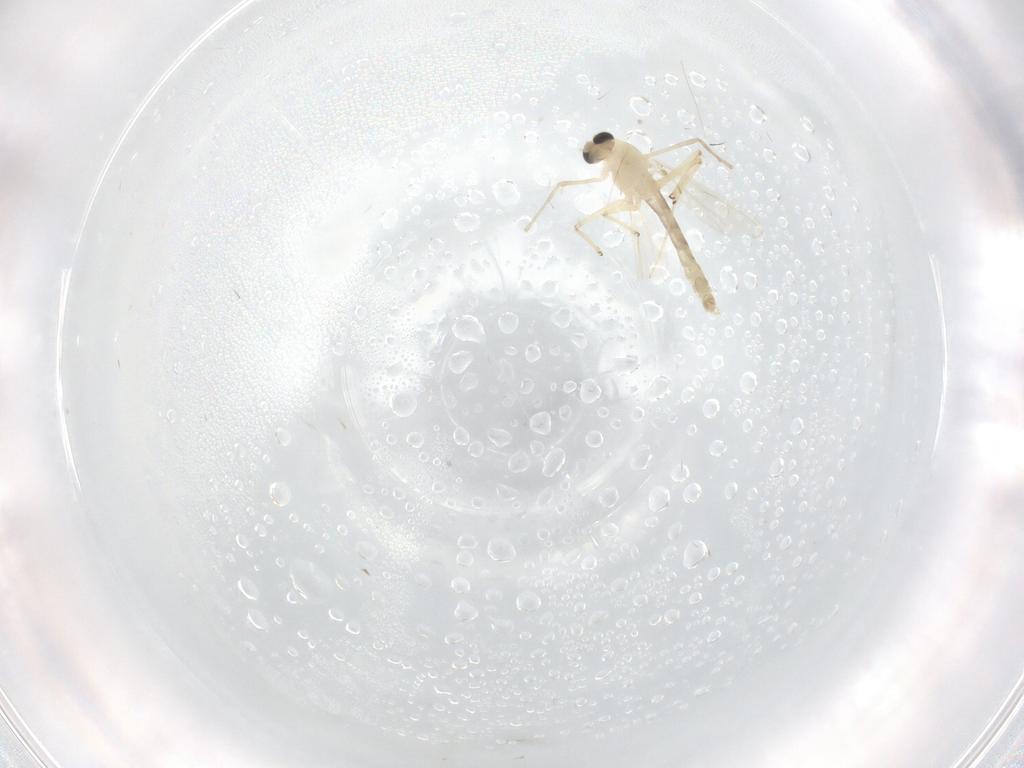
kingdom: Animalia
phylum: Arthropoda
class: Insecta
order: Diptera
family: Chironomidae
